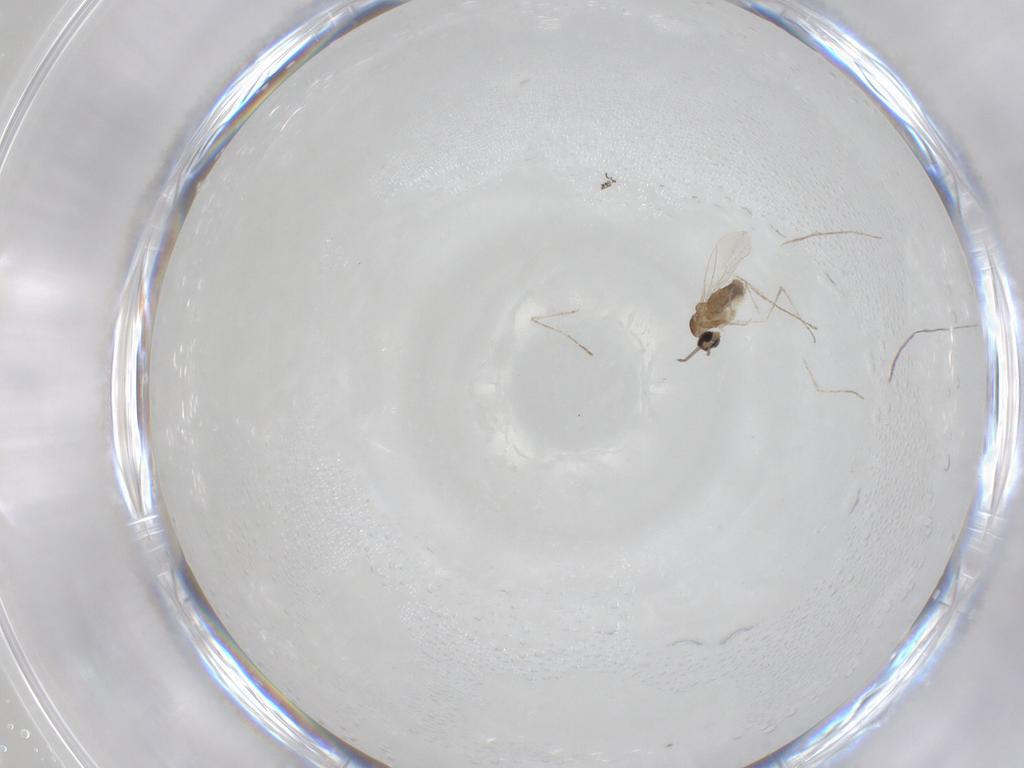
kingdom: Animalia
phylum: Arthropoda
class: Insecta
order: Diptera
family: Cecidomyiidae
